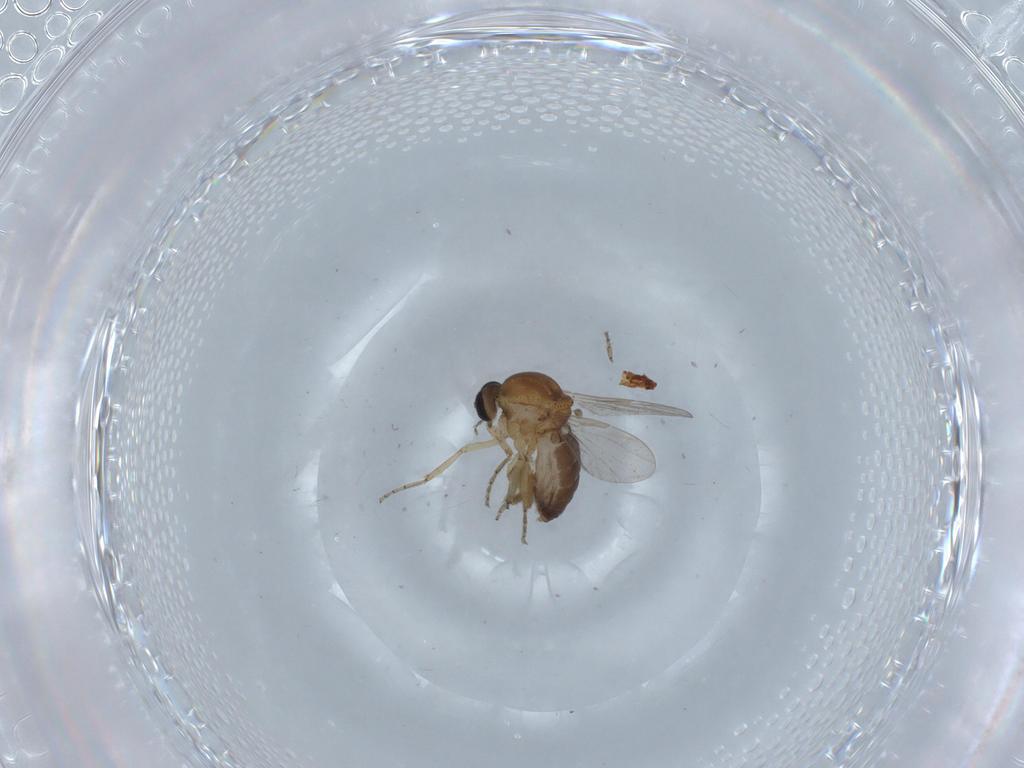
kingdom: Animalia
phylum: Arthropoda
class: Insecta
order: Diptera
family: Ceratopogonidae
